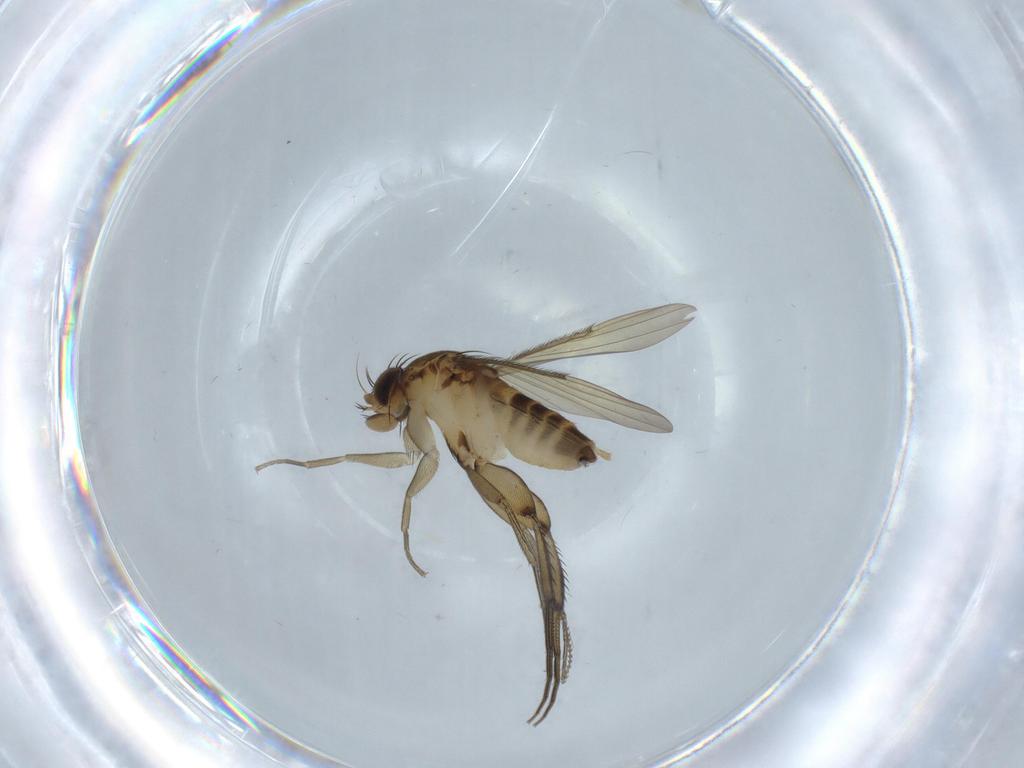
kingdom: Animalia
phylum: Arthropoda
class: Insecta
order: Diptera
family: Phoridae
